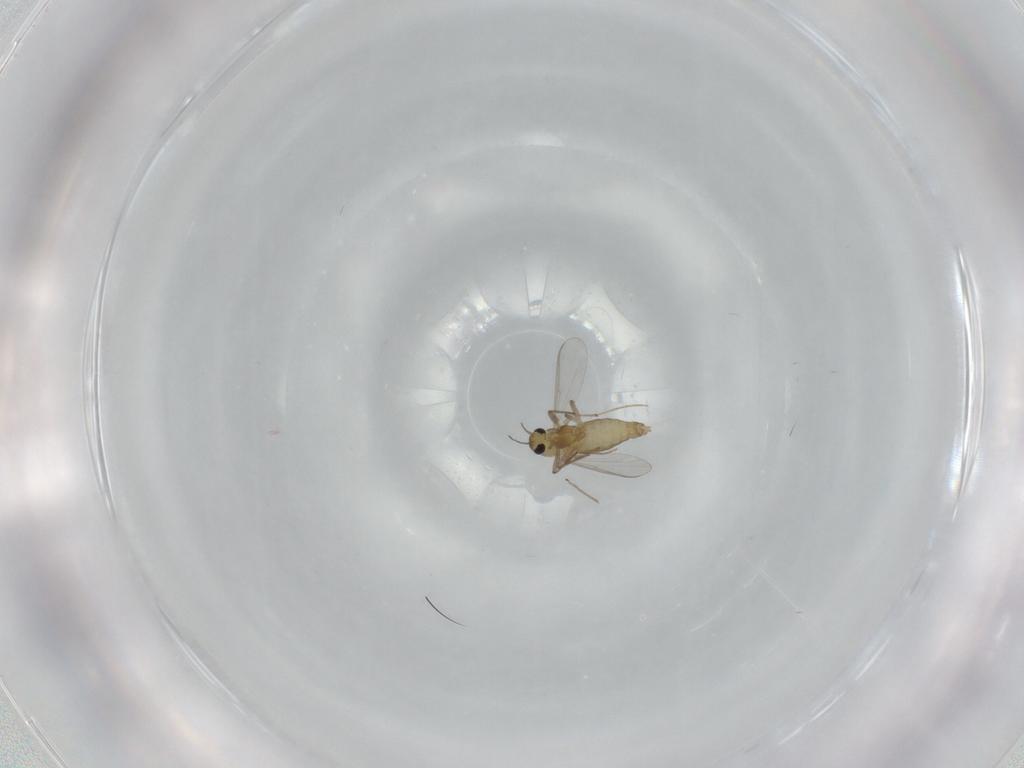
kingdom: Animalia
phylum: Arthropoda
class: Insecta
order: Diptera
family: Chironomidae
